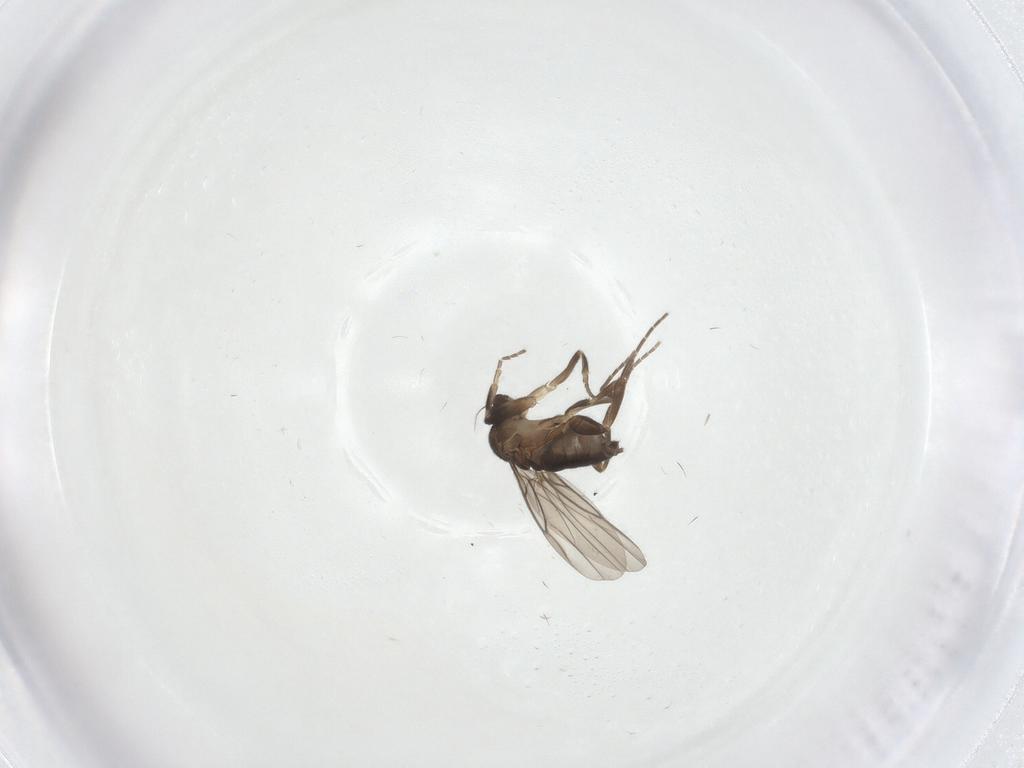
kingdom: Animalia
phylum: Arthropoda
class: Insecta
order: Diptera
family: Phoridae
